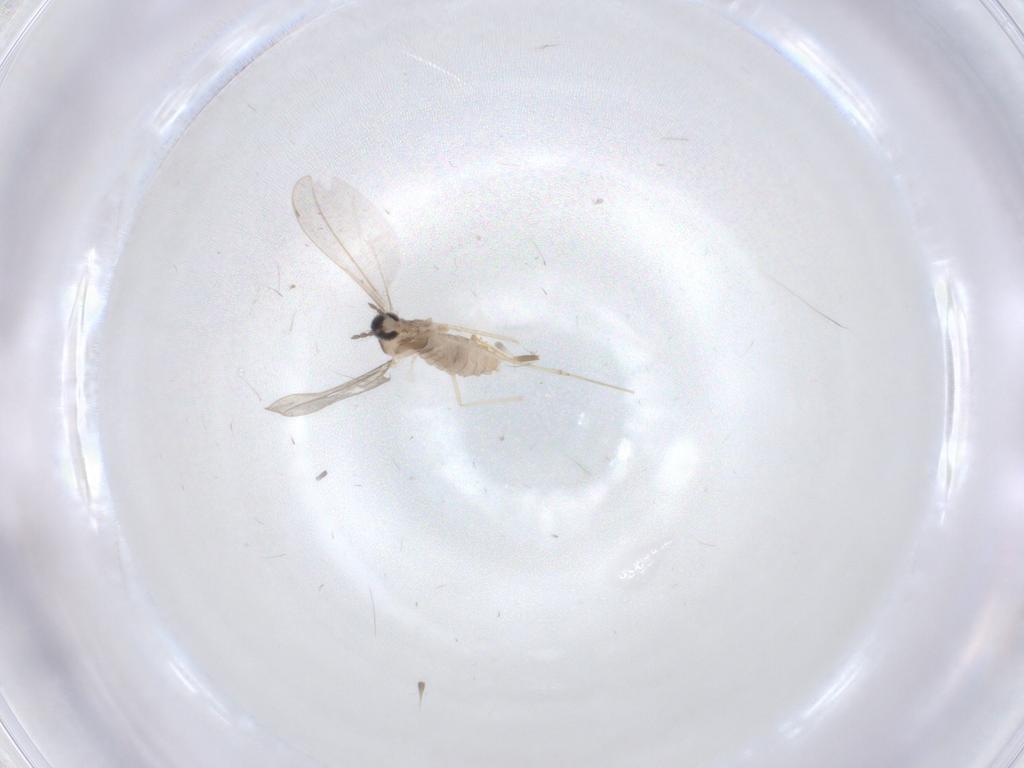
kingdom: Animalia
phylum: Arthropoda
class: Insecta
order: Diptera
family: Cecidomyiidae
